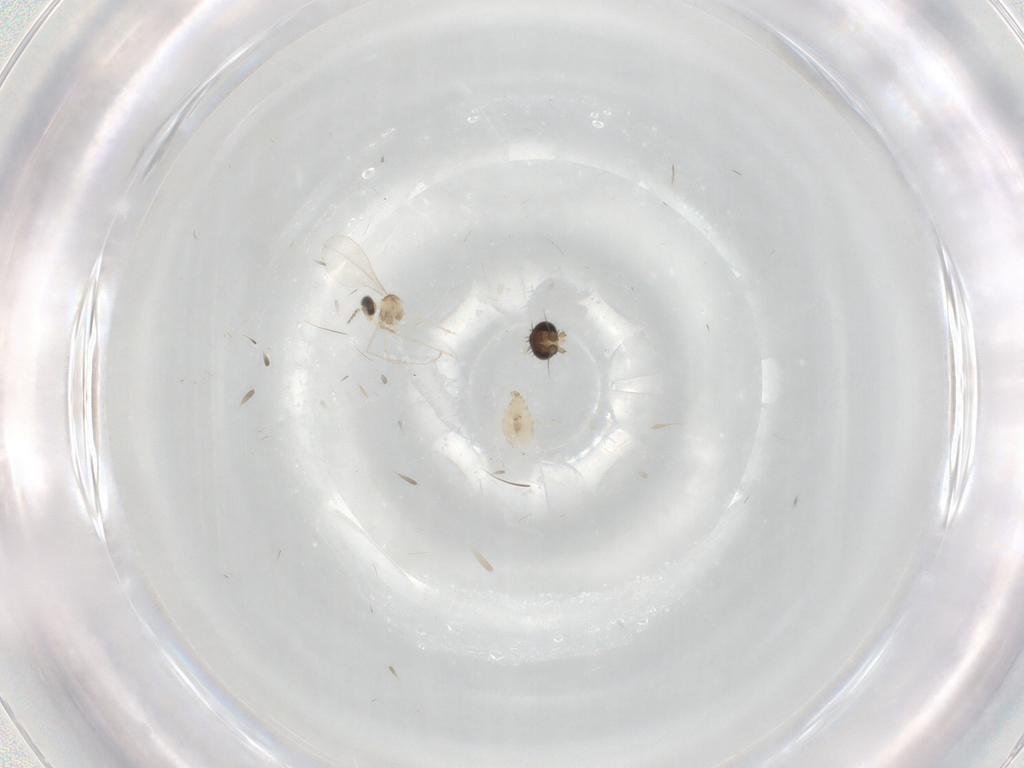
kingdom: Animalia
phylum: Arthropoda
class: Insecta
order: Diptera
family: Phoridae
